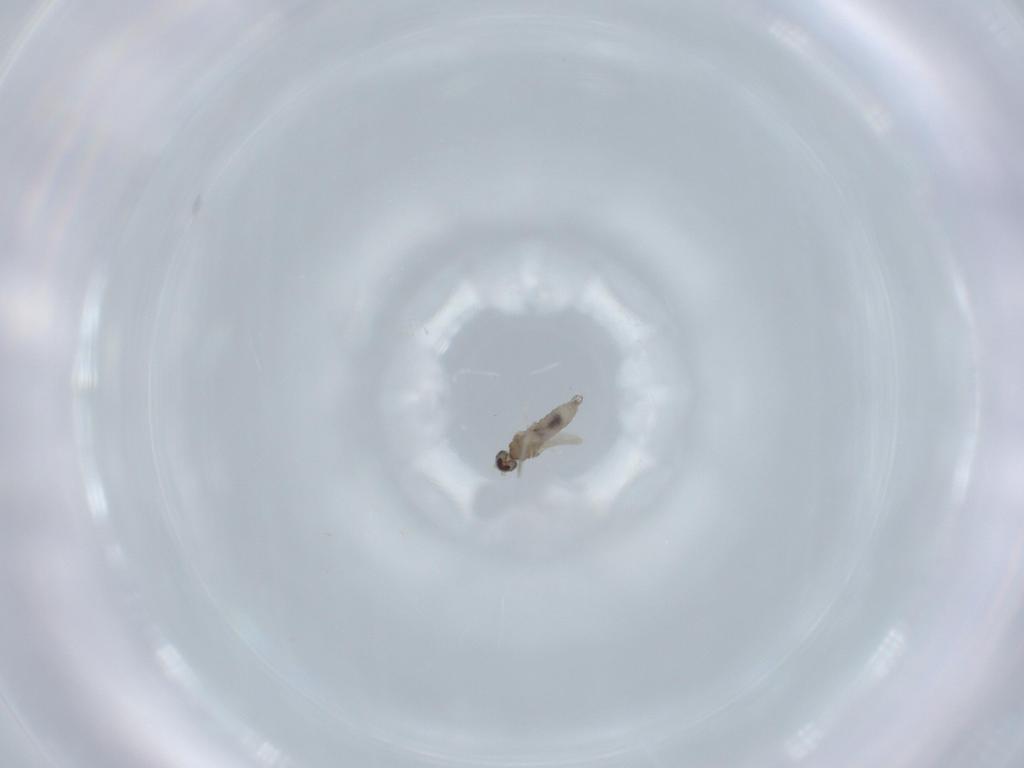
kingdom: Animalia
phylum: Arthropoda
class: Insecta
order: Diptera
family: Cecidomyiidae
